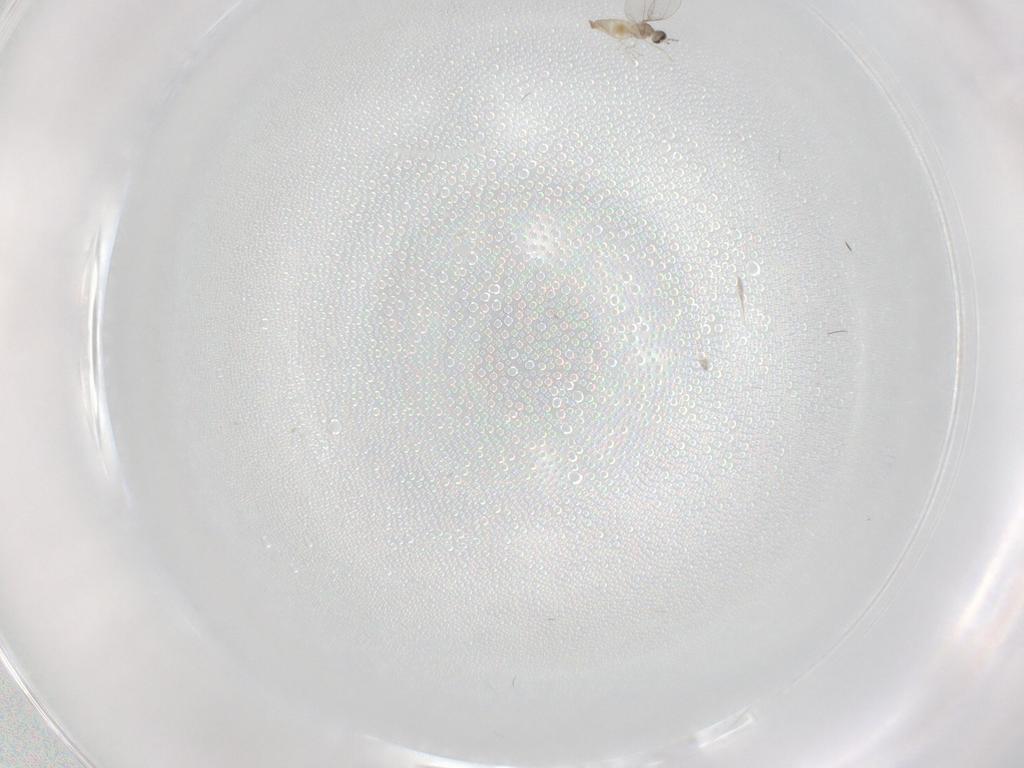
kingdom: Animalia
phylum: Arthropoda
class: Insecta
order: Diptera
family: Cecidomyiidae
